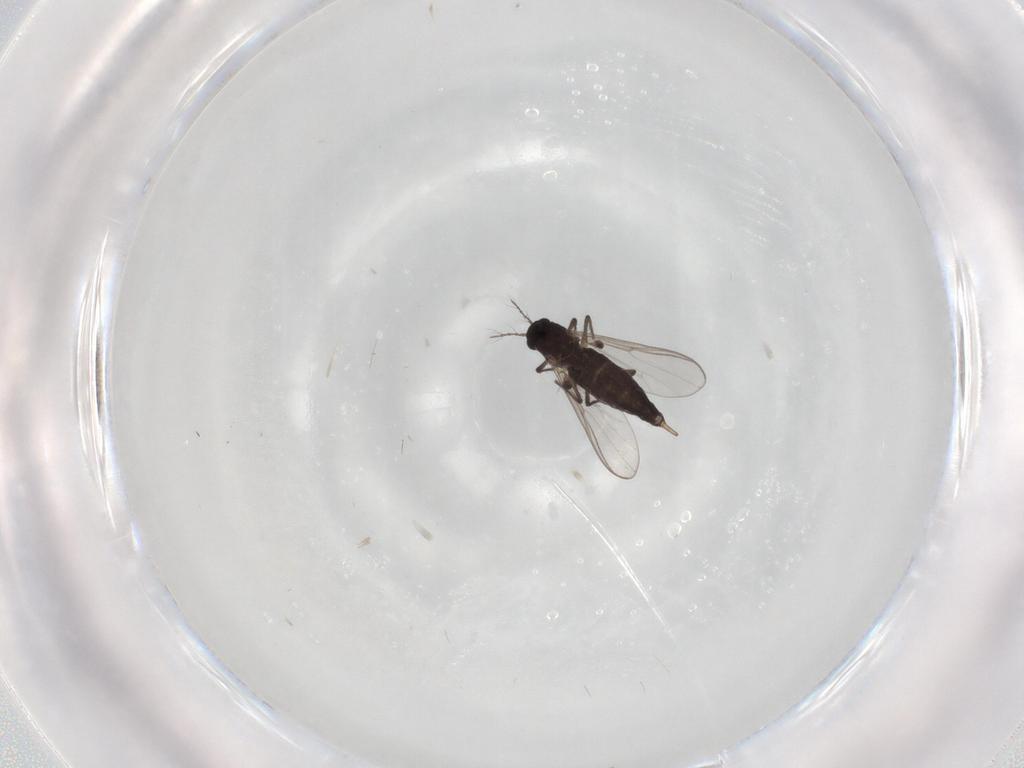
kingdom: Animalia
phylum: Arthropoda
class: Insecta
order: Diptera
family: Chironomidae
